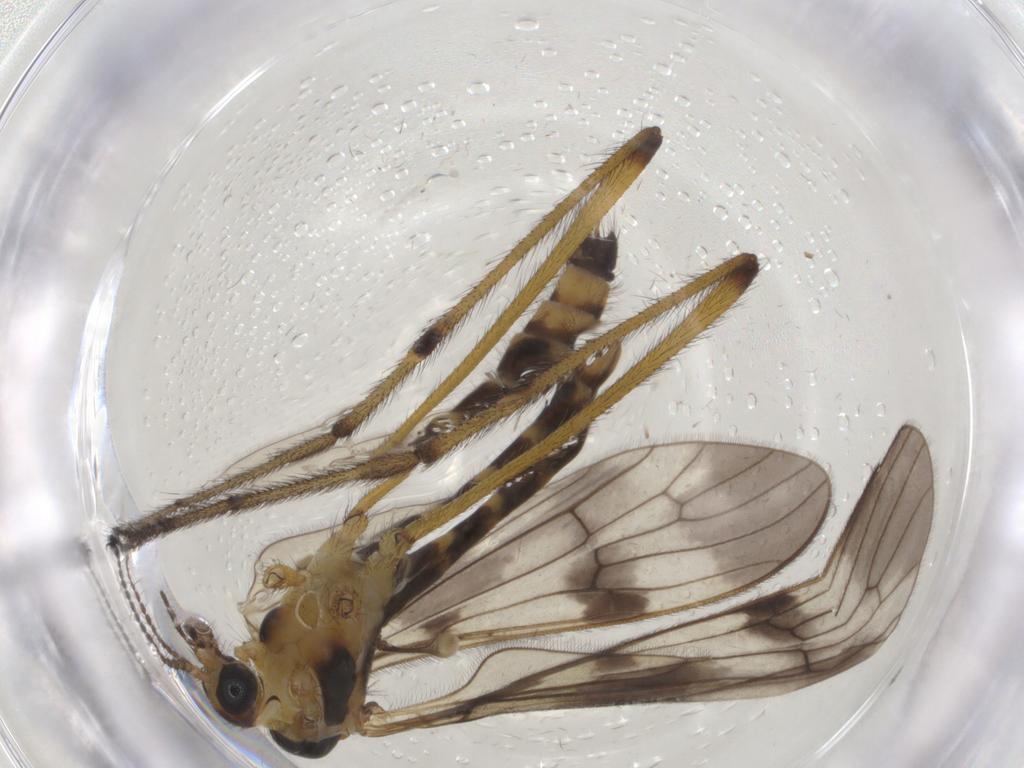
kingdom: Animalia
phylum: Arthropoda
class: Insecta
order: Diptera
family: Limoniidae
